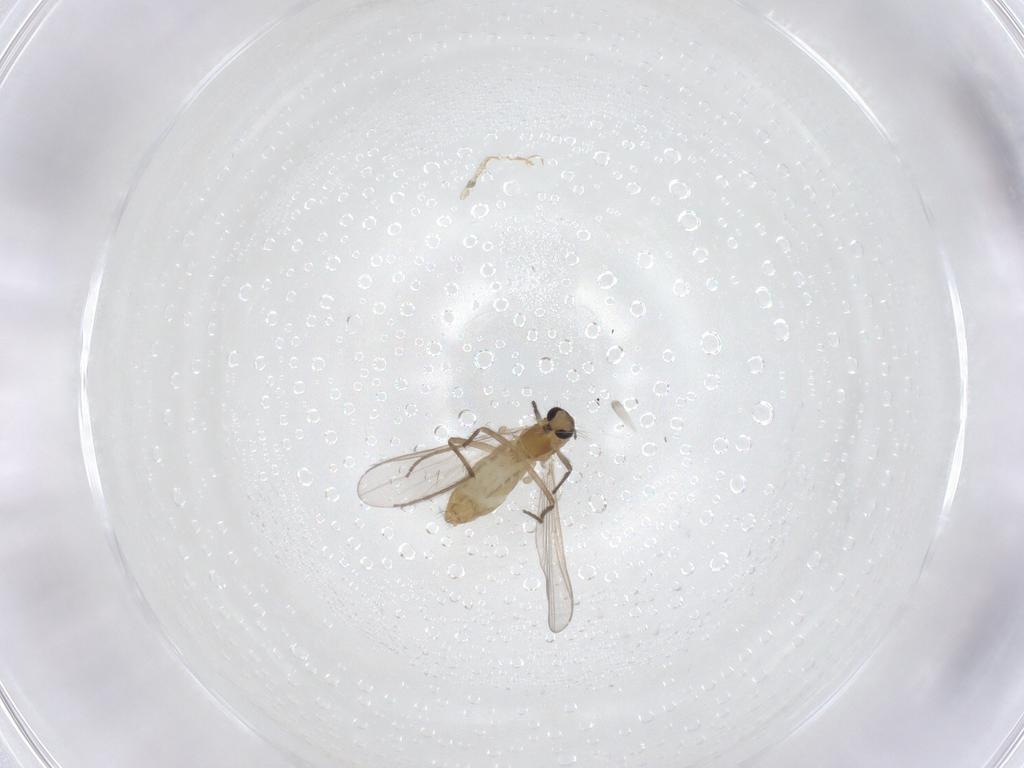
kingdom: Animalia
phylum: Arthropoda
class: Insecta
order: Diptera
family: Chironomidae
